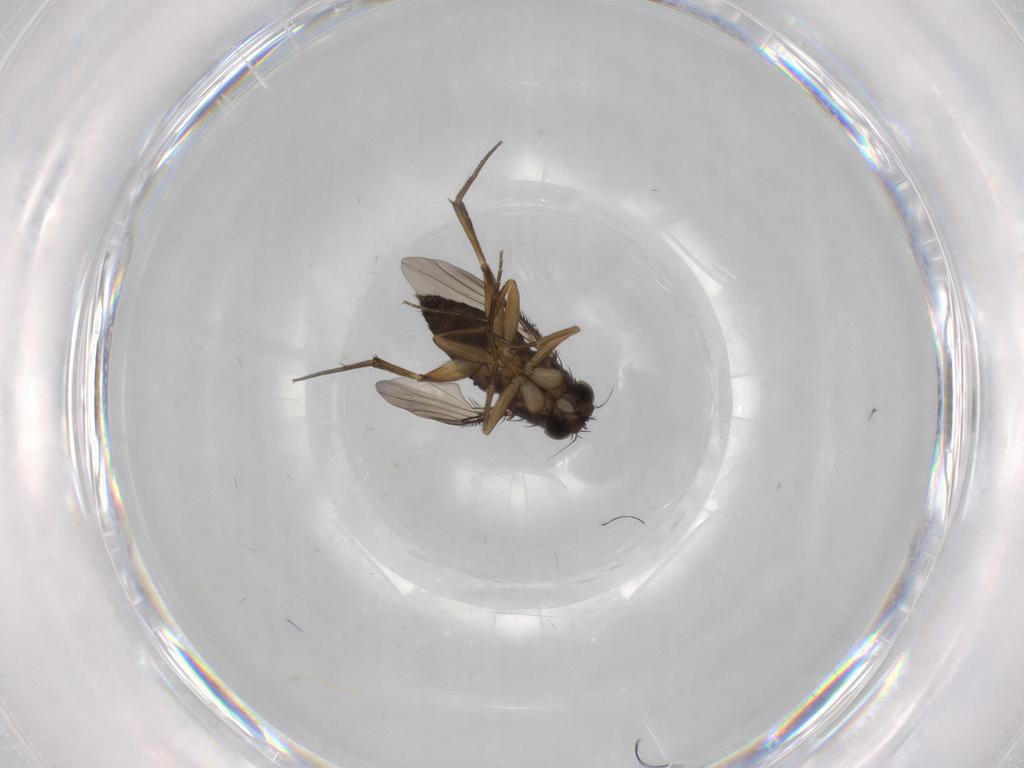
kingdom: Animalia
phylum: Arthropoda
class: Insecta
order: Diptera
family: Phoridae
